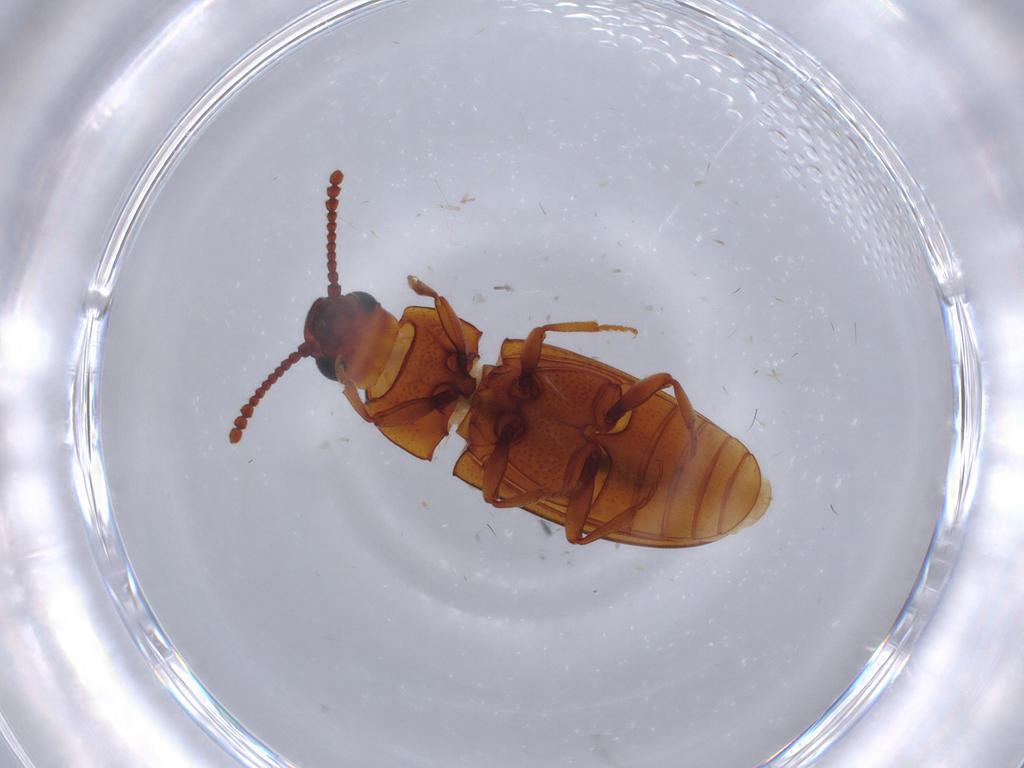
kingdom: Animalia
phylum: Arthropoda
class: Insecta
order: Coleoptera
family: Erotylidae
